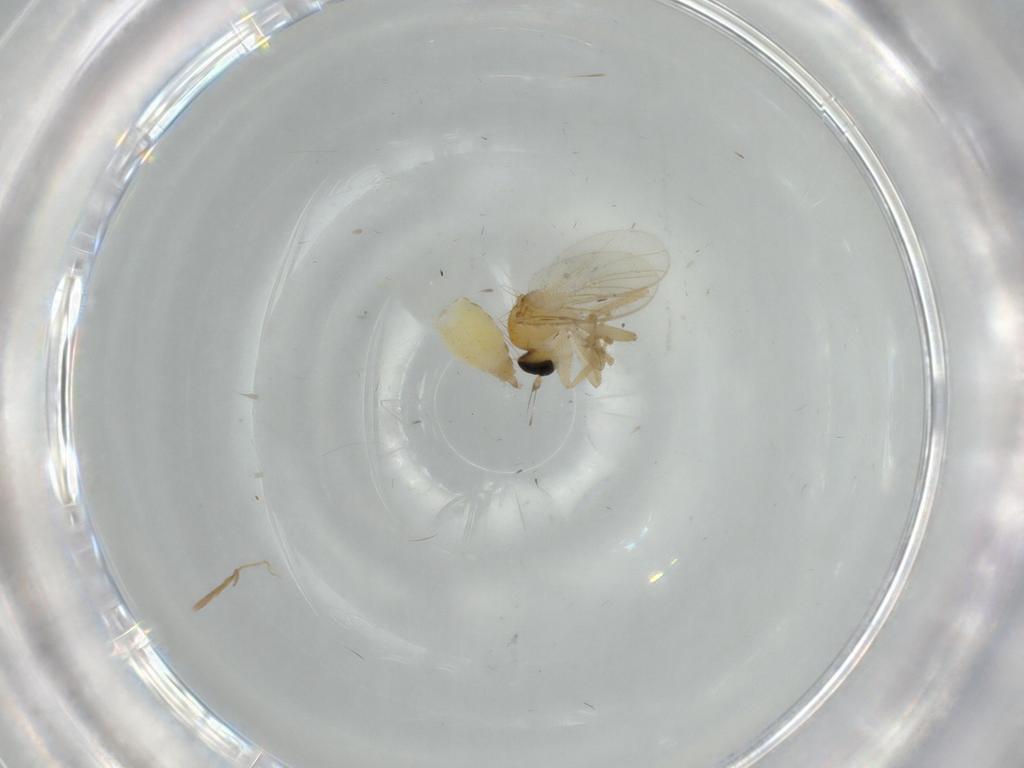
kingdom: Animalia
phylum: Arthropoda
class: Insecta
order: Diptera
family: Hybotidae
